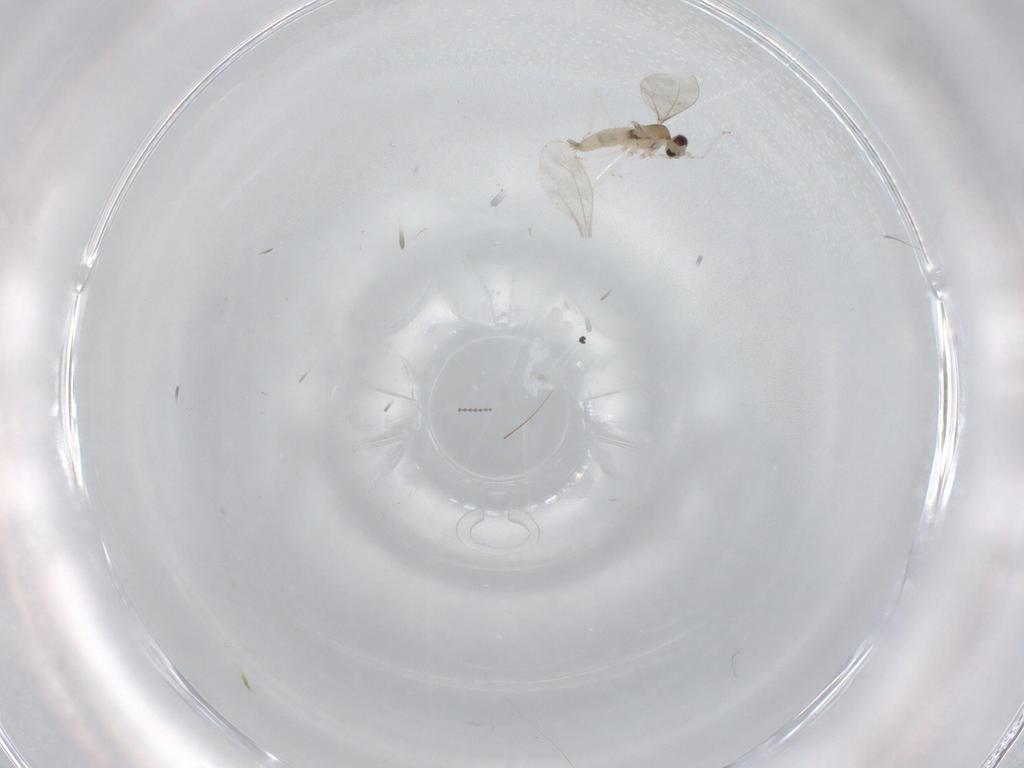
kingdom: Animalia
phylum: Arthropoda
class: Insecta
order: Diptera
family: Cecidomyiidae
